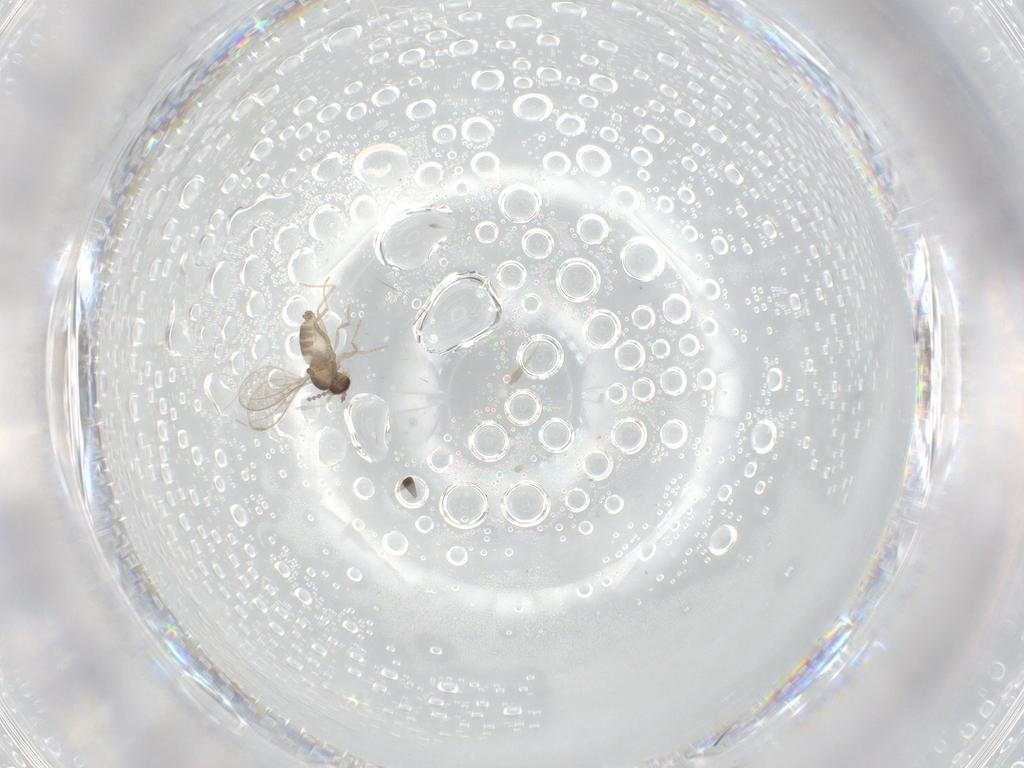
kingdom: Animalia
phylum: Arthropoda
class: Insecta
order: Diptera
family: Cecidomyiidae
